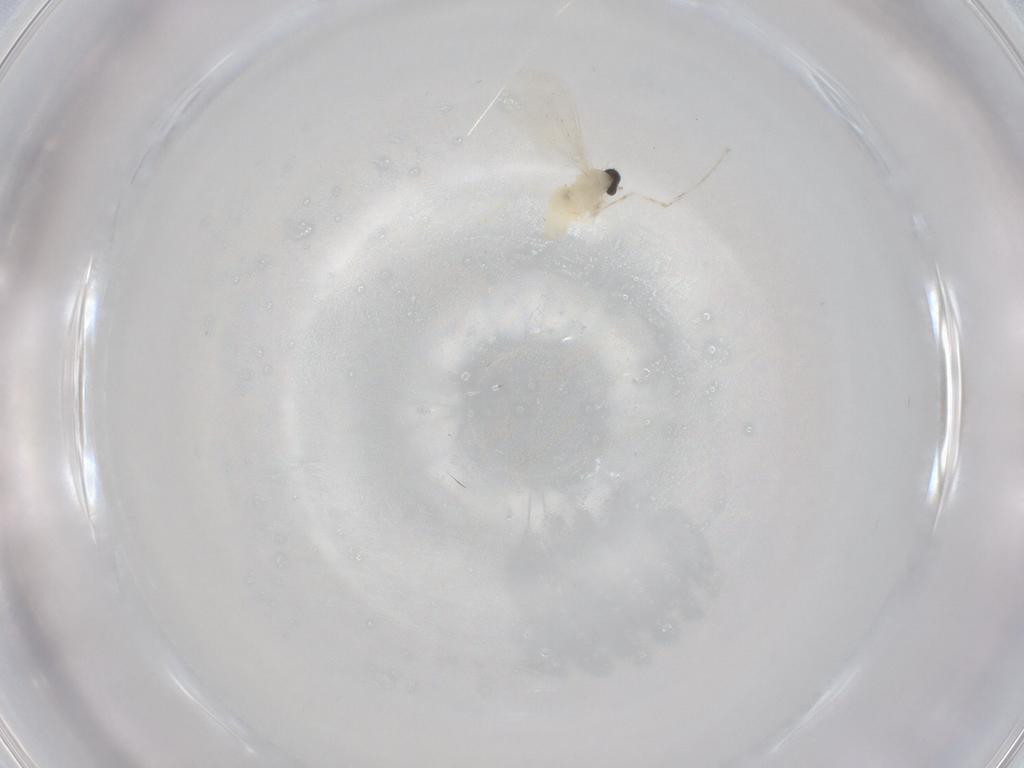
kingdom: Animalia
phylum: Arthropoda
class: Insecta
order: Diptera
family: Chironomidae
